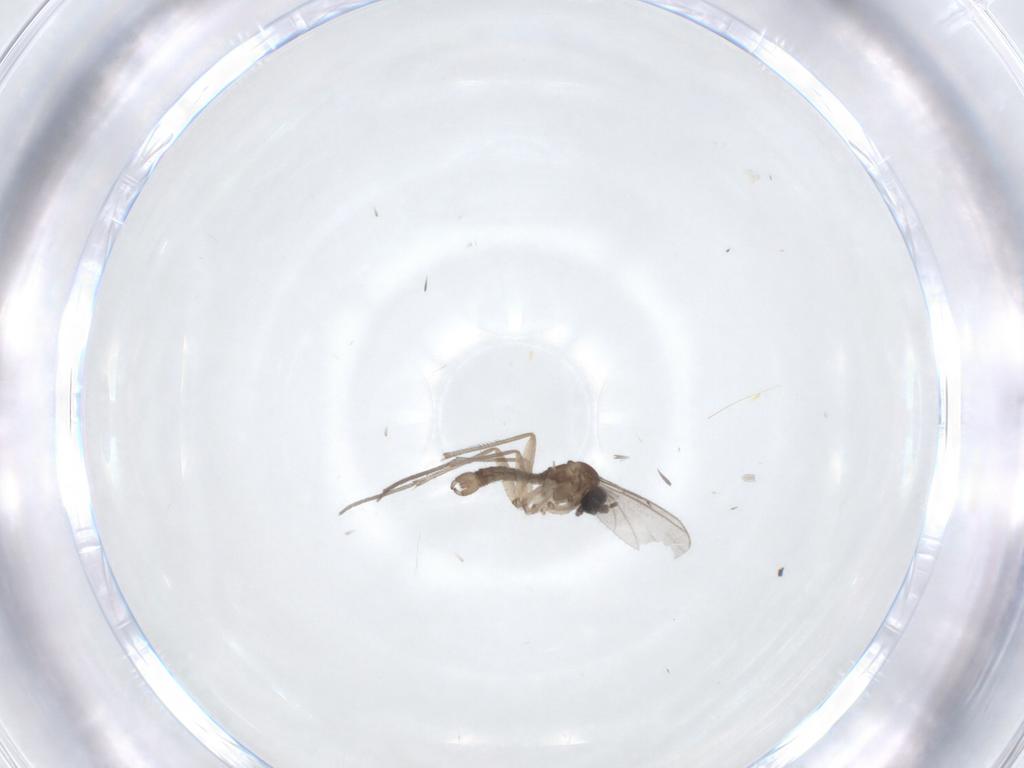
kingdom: Animalia
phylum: Arthropoda
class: Insecta
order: Diptera
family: Sciaridae
